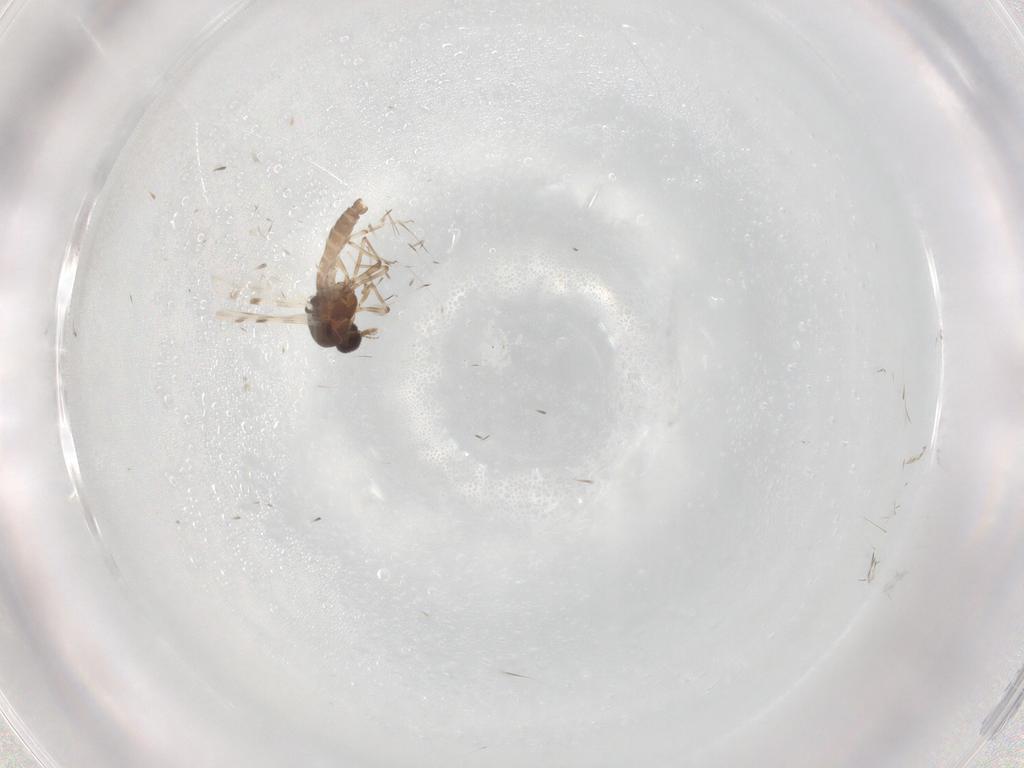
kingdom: Animalia
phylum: Arthropoda
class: Insecta
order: Diptera
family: Ceratopogonidae
